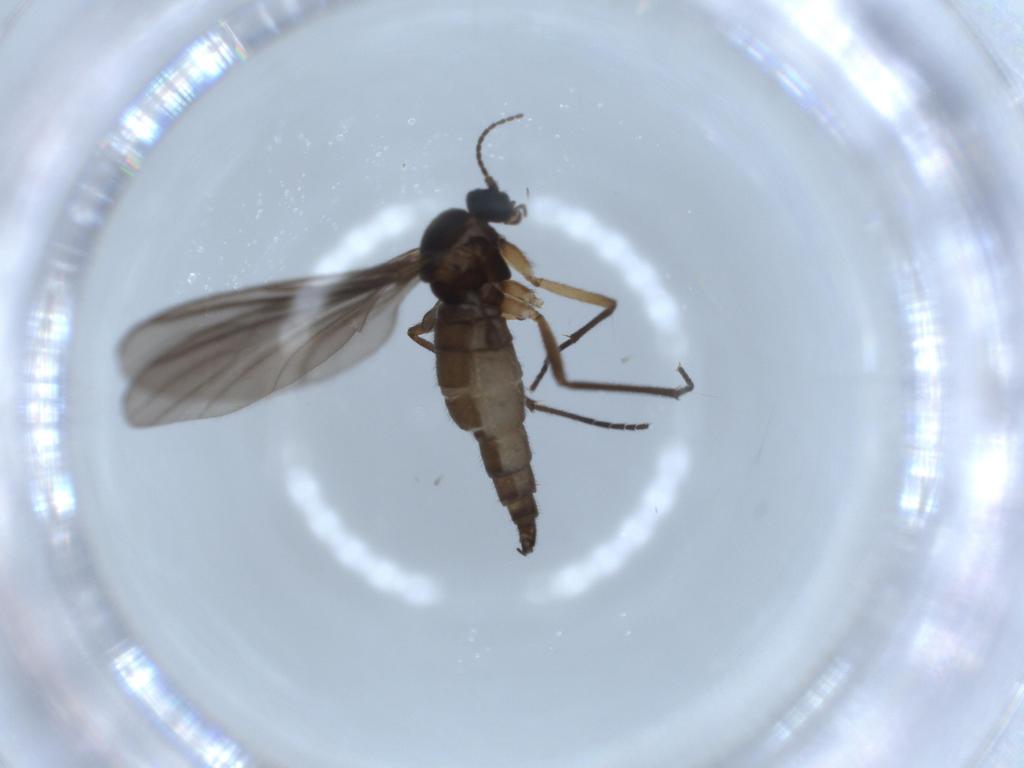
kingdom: Animalia
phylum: Arthropoda
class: Insecta
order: Diptera
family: Sciaridae
